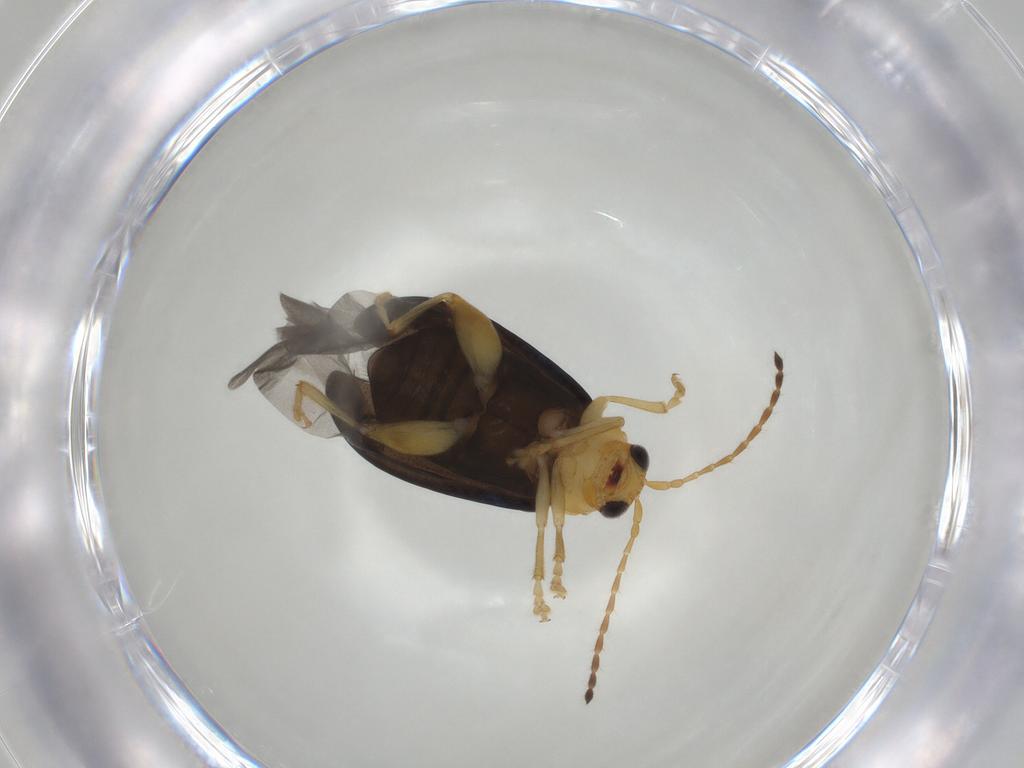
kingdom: Animalia
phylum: Arthropoda
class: Insecta
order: Coleoptera
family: Chrysomelidae
